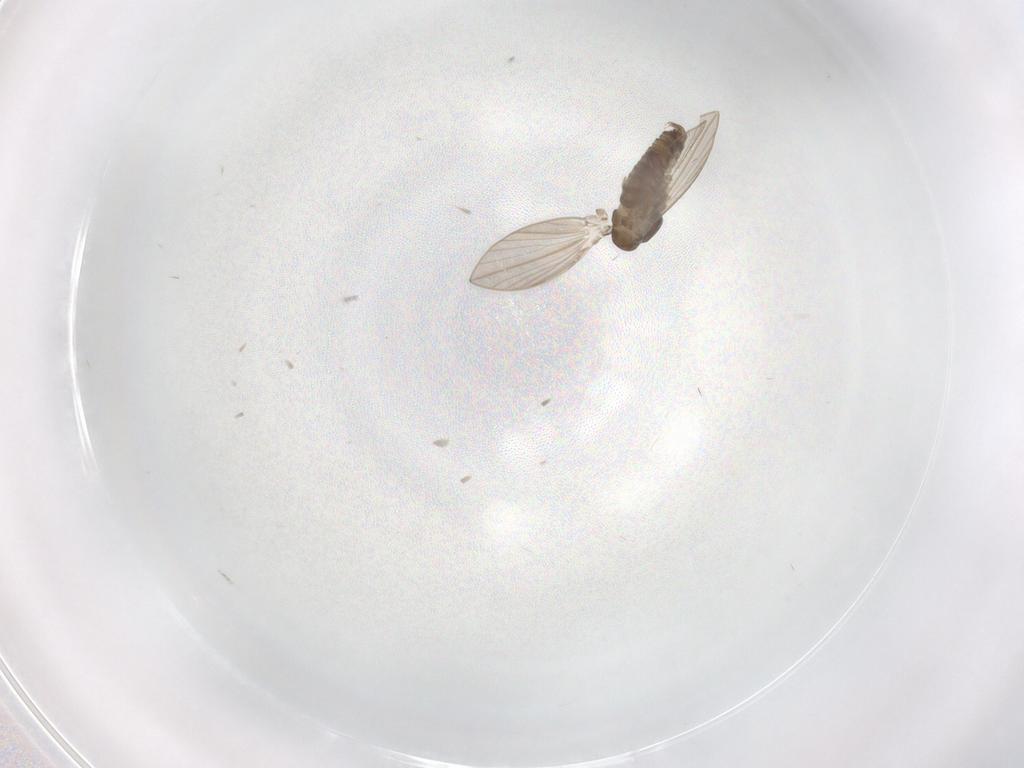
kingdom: Animalia
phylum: Arthropoda
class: Insecta
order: Diptera
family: Psychodidae
